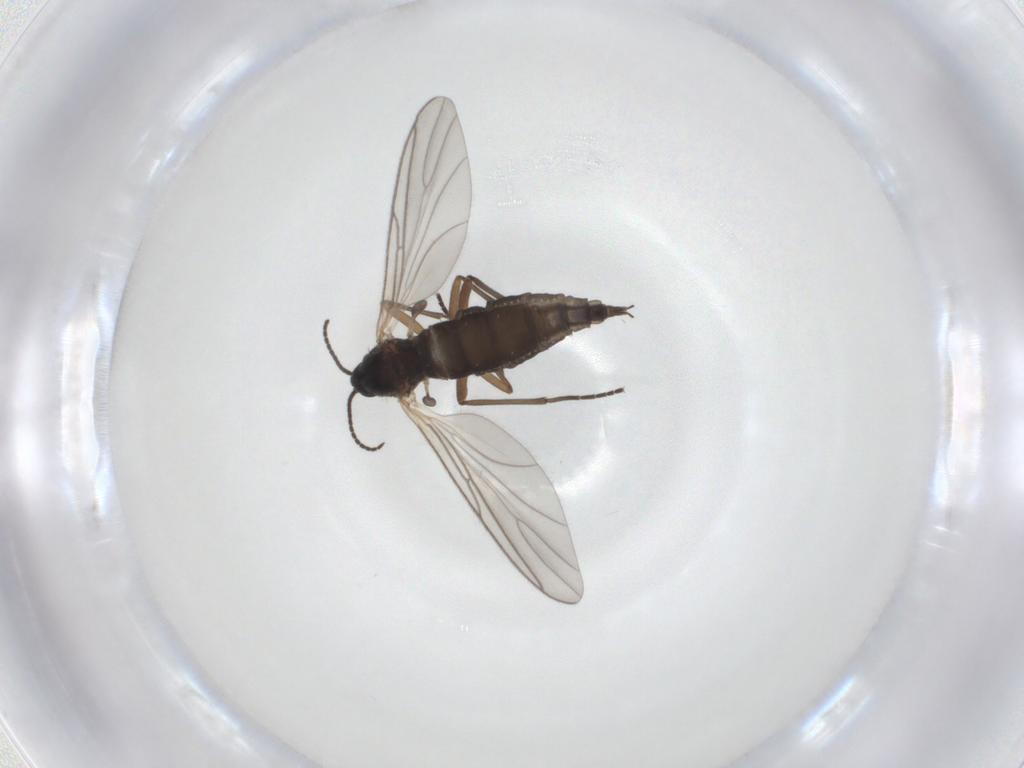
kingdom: Animalia
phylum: Arthropoda
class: Insecta
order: Diptera
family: Sciaridae
